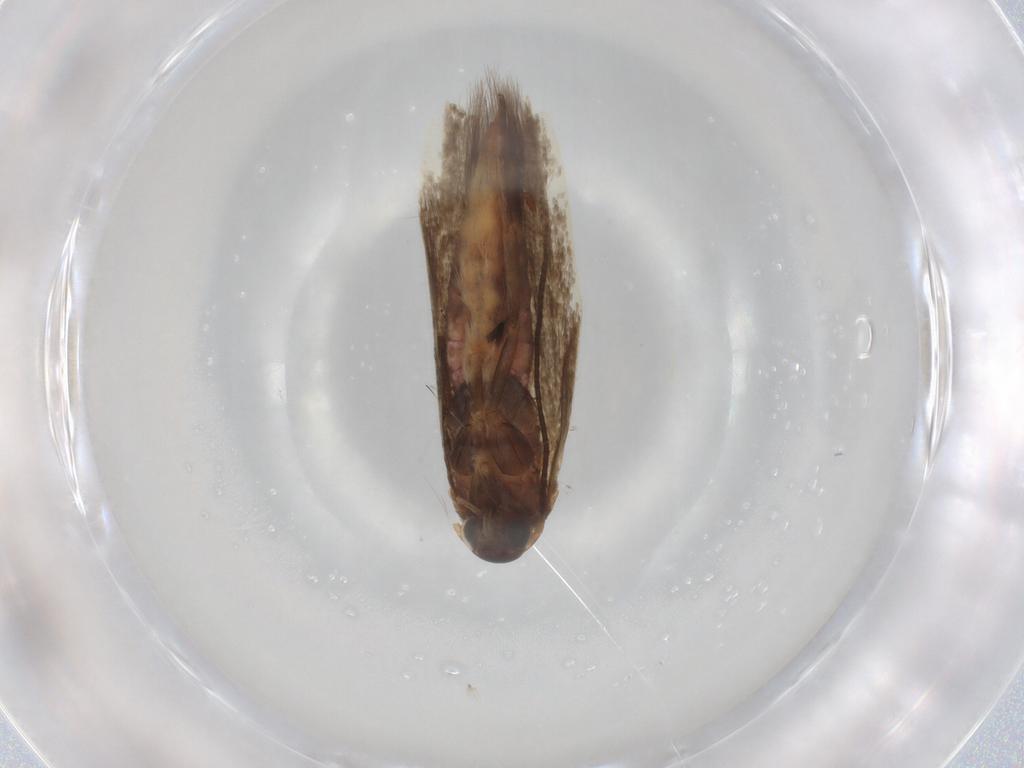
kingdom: Animalia
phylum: Arthropoda
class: Insecta
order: Lepidoptera
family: Scythrididae
